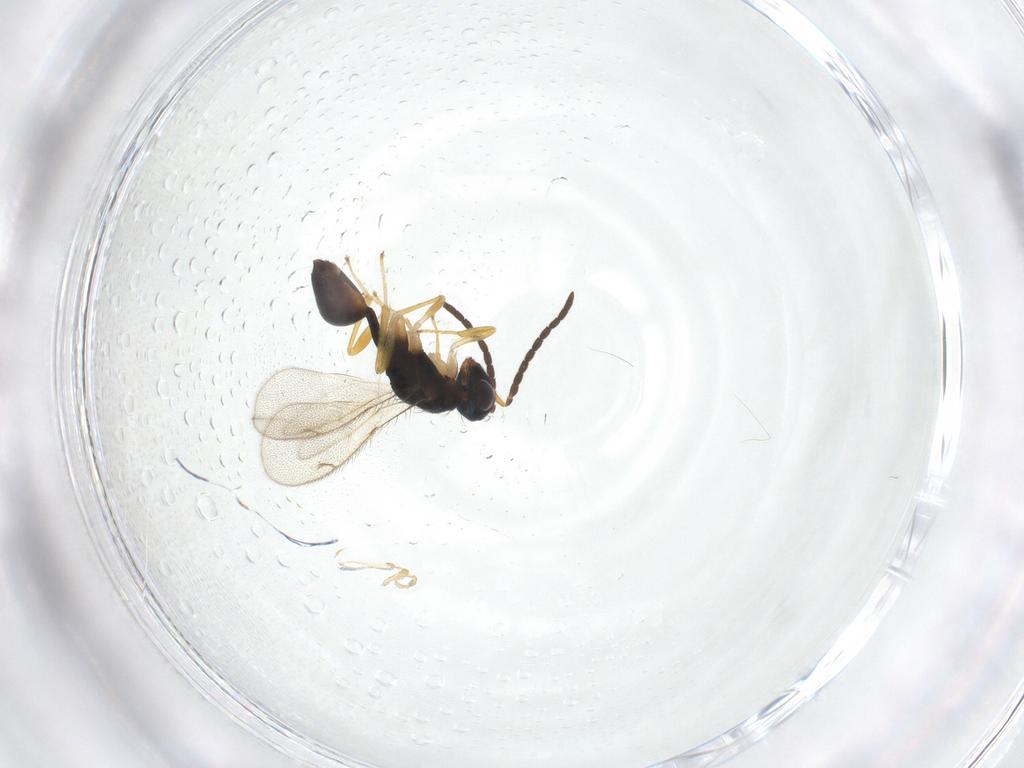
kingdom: Animalia
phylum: Arthropoda
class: Insecta
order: Hymenoptera
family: Diparidae
